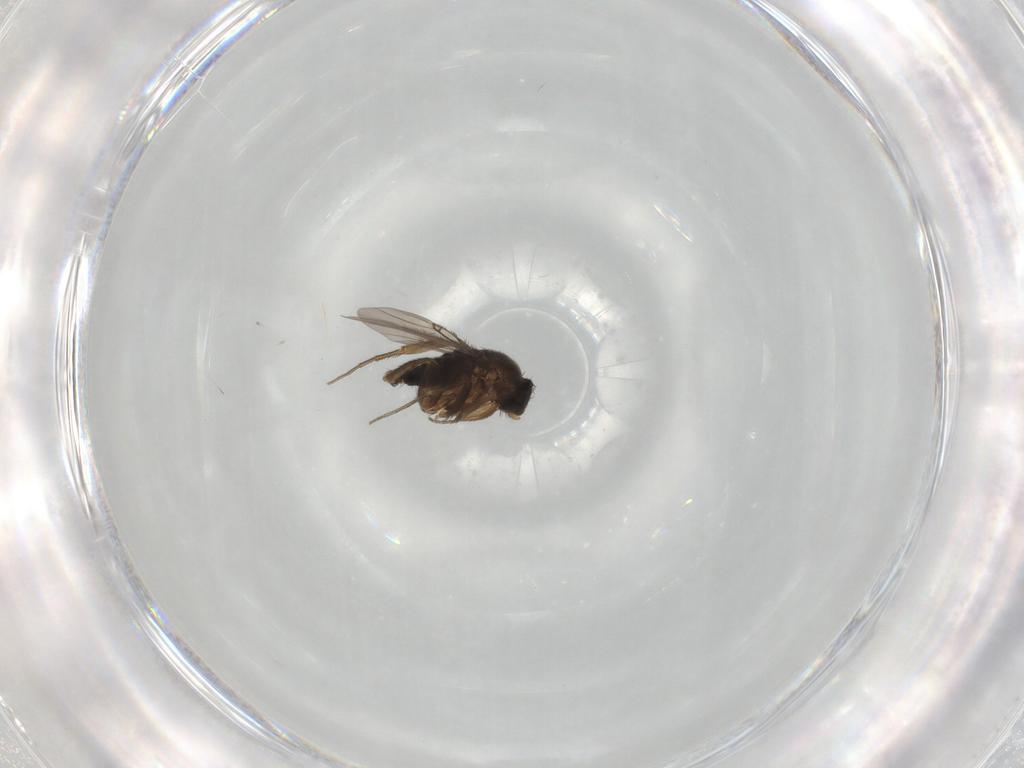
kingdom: Animalia
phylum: Arthropoda
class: Insecta
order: Diptera
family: Phoridae
